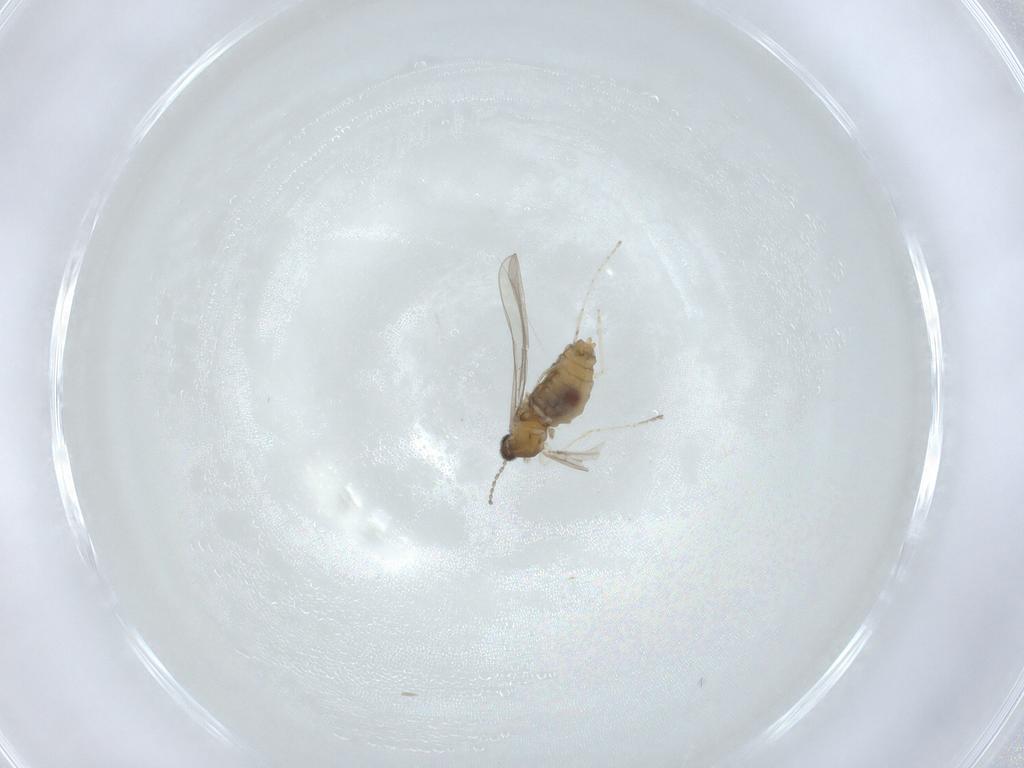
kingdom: Animalia
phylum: Arthropoda
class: Insecta
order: Diptera
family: Cecidomyiidae
